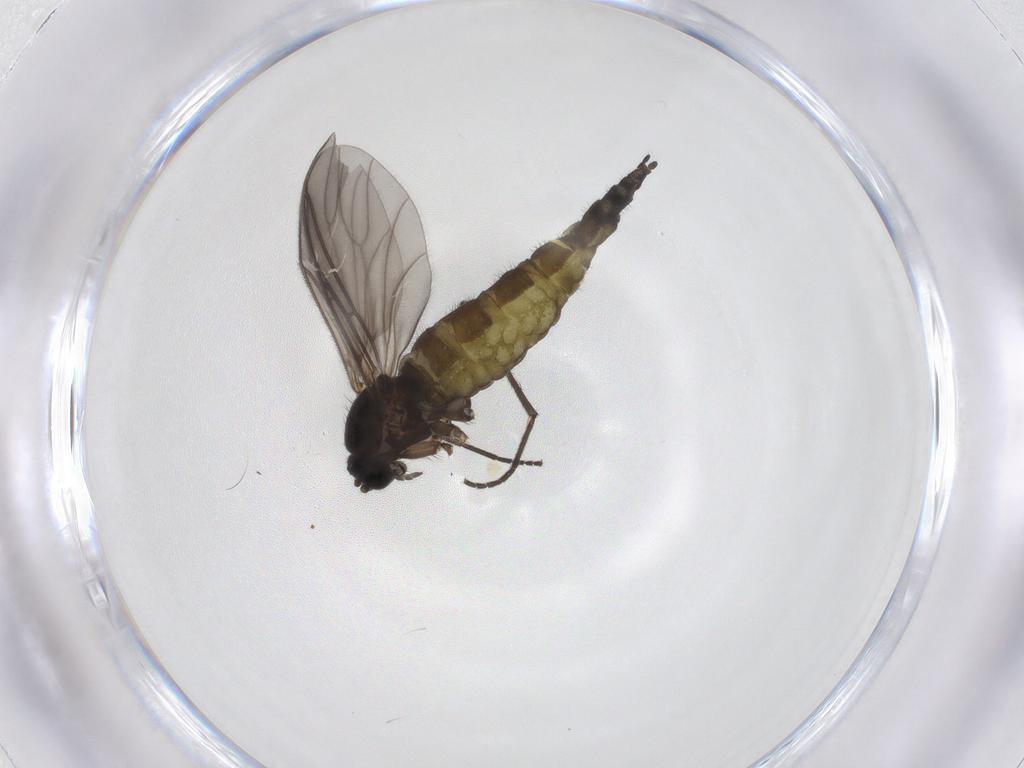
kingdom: Animalia
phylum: Arthropoda
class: Insecta
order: Diptera
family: Sciaridae
